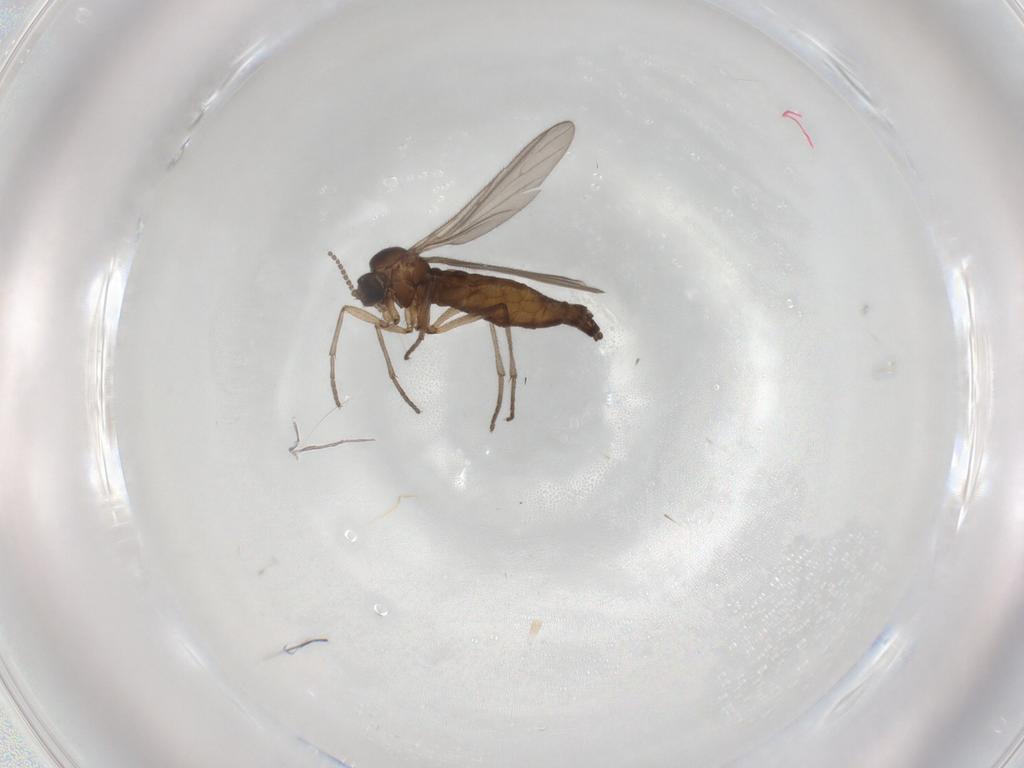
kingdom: Animalia
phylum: Arthropoda
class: Insecta
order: Diptera
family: Sciaridae
